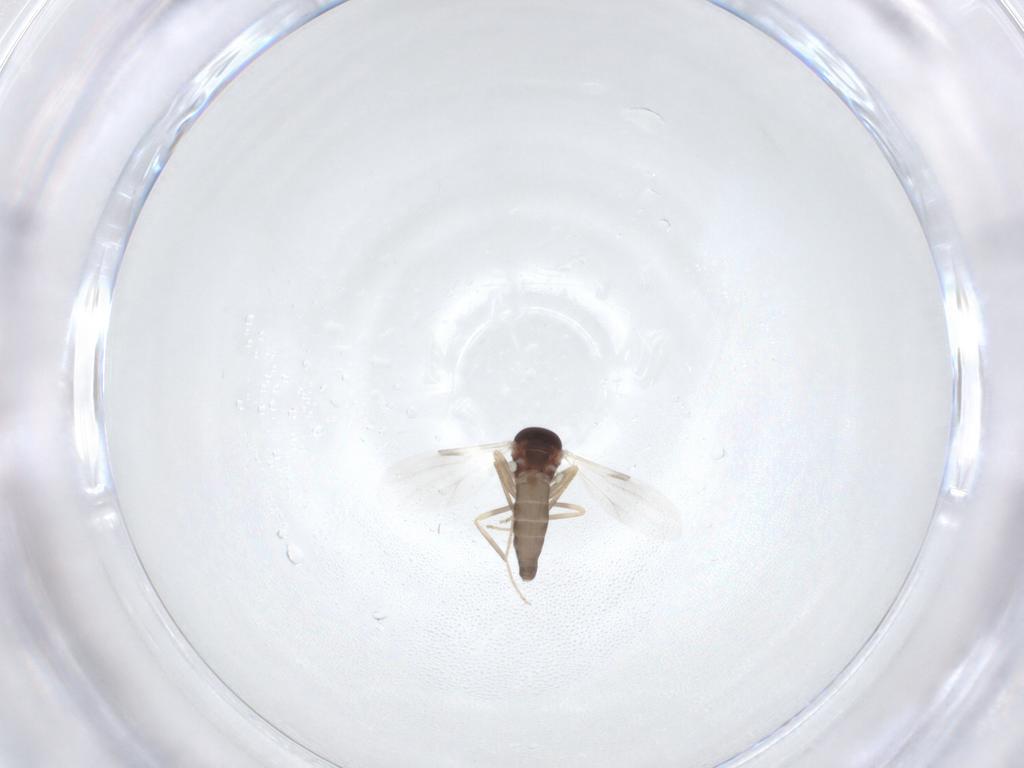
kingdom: Animalia
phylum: Arthropoda
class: Insecta
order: Diptera
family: Ceratopogonidae
